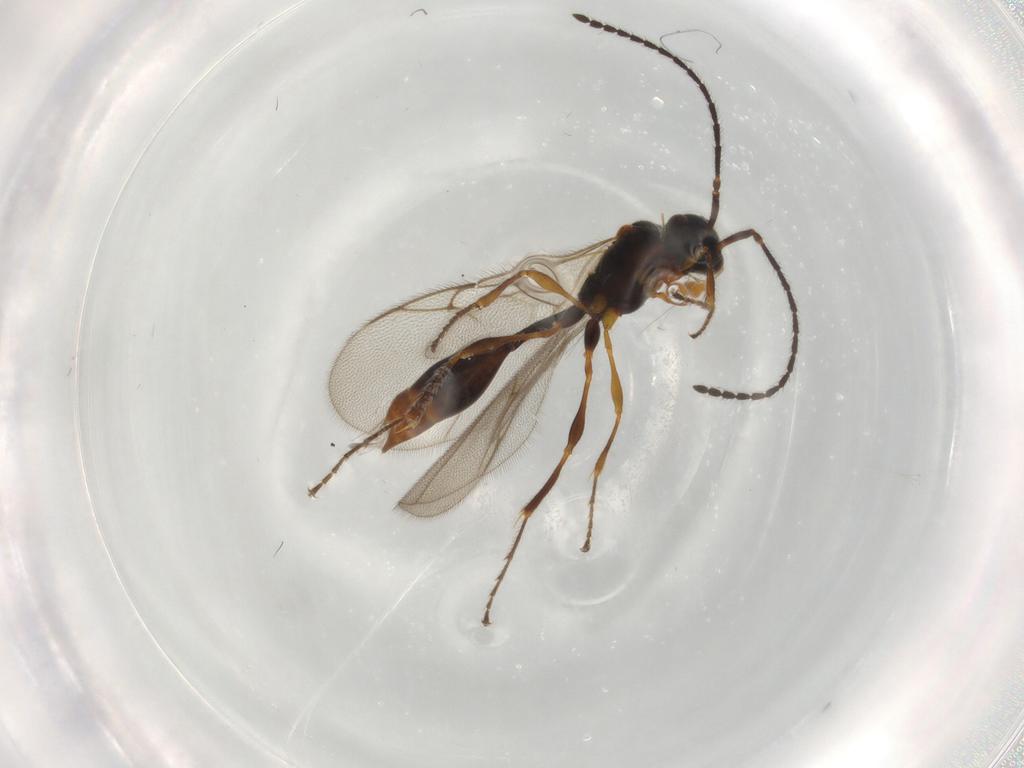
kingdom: Animalia
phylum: Arthropoda
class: Insecta
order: Hymenoptera
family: Diapriidae
